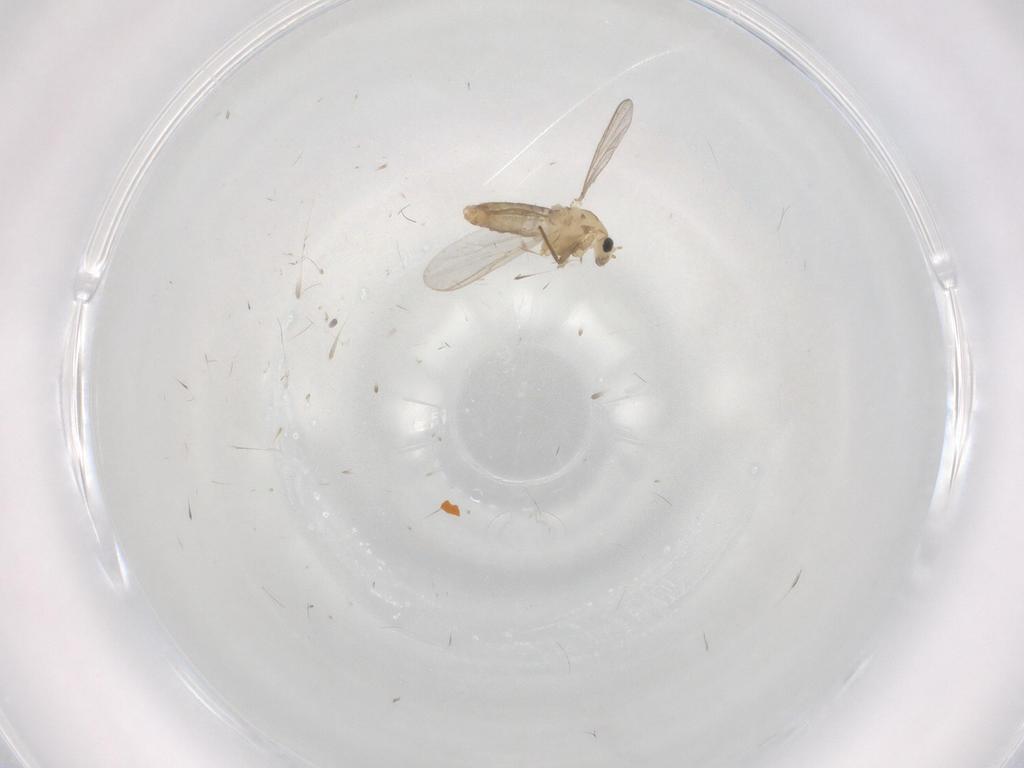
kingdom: Animalia
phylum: Arthropoda
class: Insecta
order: Diptera
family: Chironomidae
